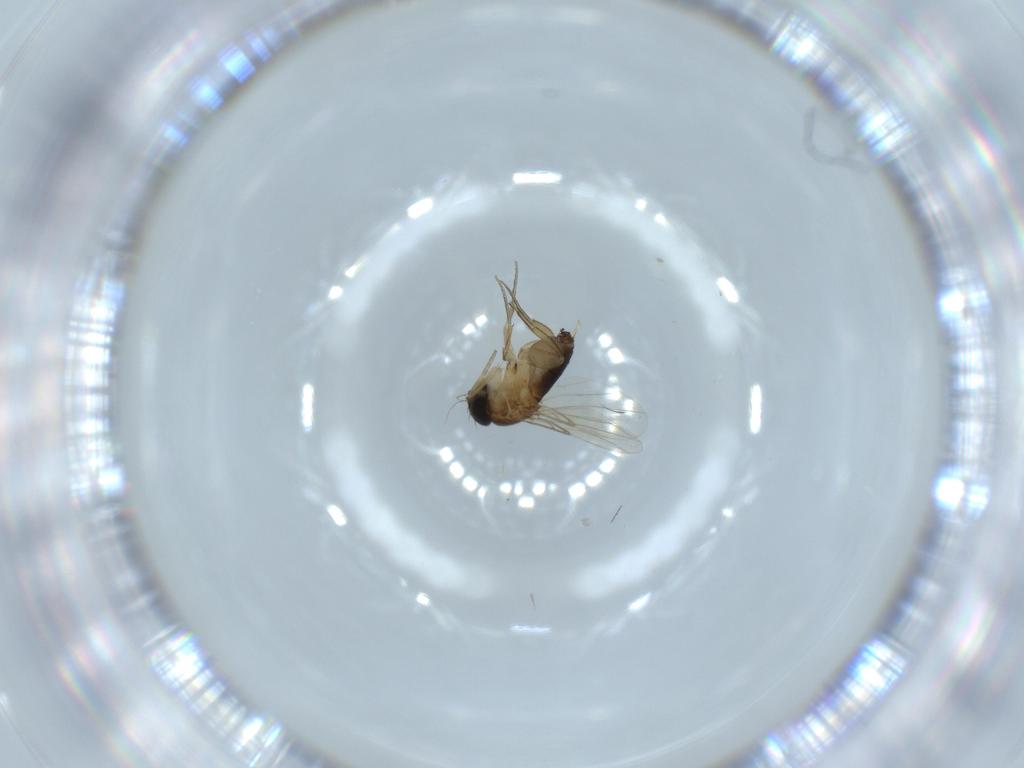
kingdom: Animalia
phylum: Arthropoda
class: Insecta
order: Diptera
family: Phoridae
